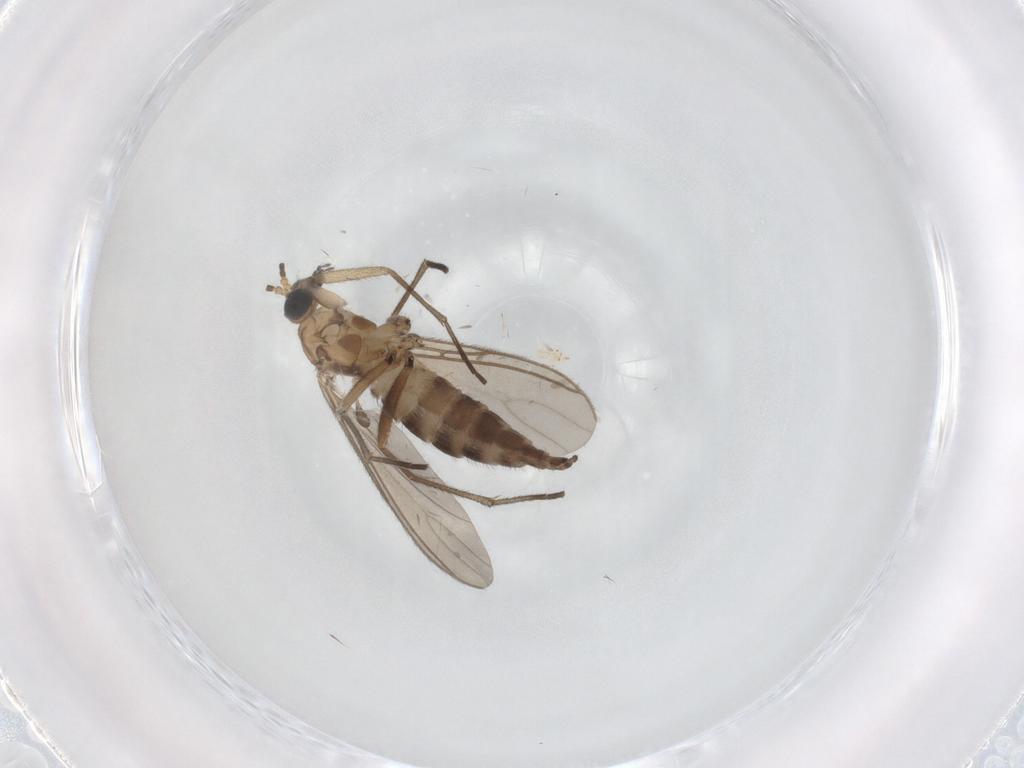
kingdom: Animalia
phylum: Arthropoda
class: Insecta
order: Diptera
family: Sciaridae
